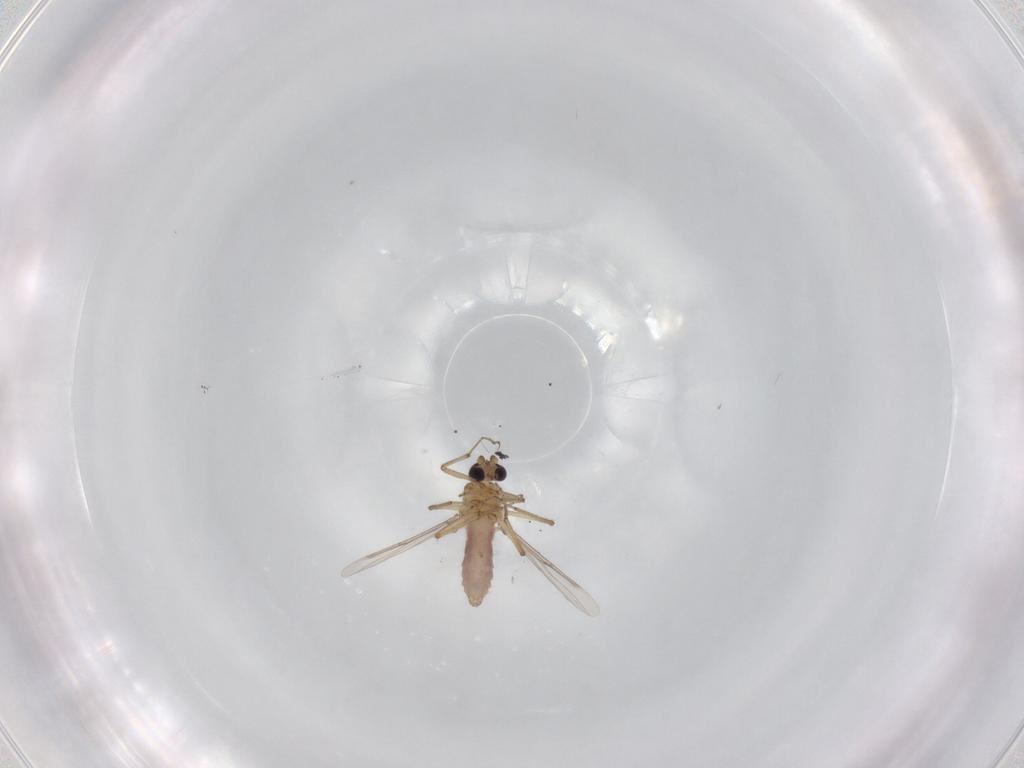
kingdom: Animalia
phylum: Arthropoda
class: Insecta
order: Diptera
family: Ceratopogonidae
